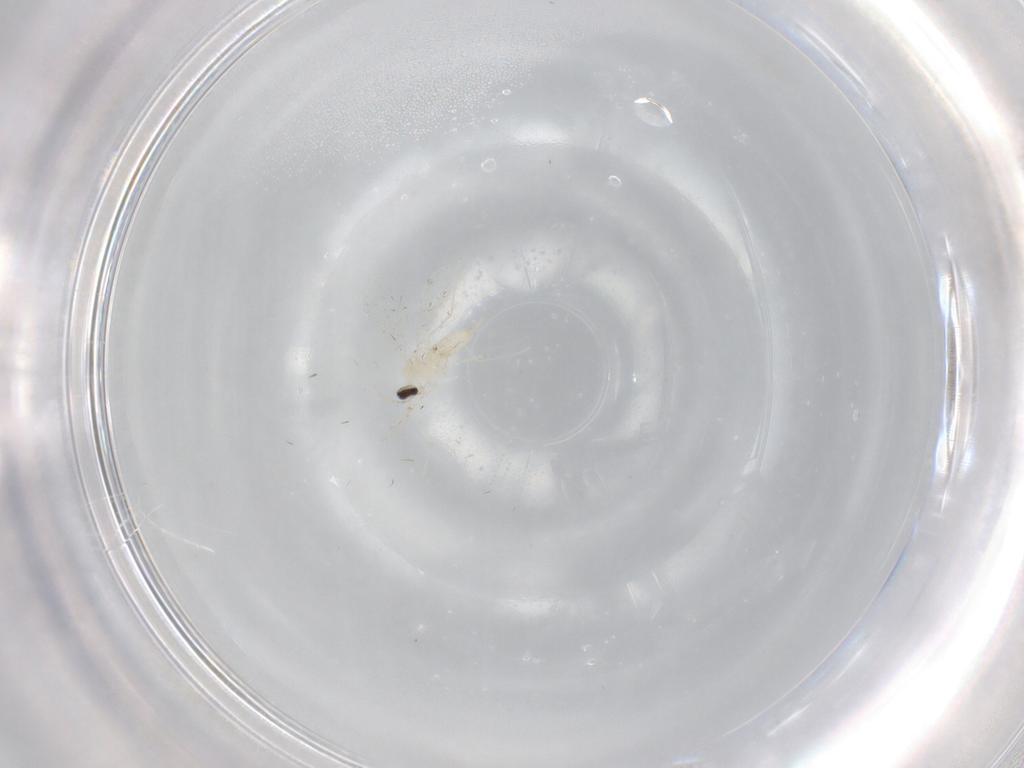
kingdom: Animalia
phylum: Arthropoda
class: Insecta
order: Diptera
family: Cecidomyiidae
